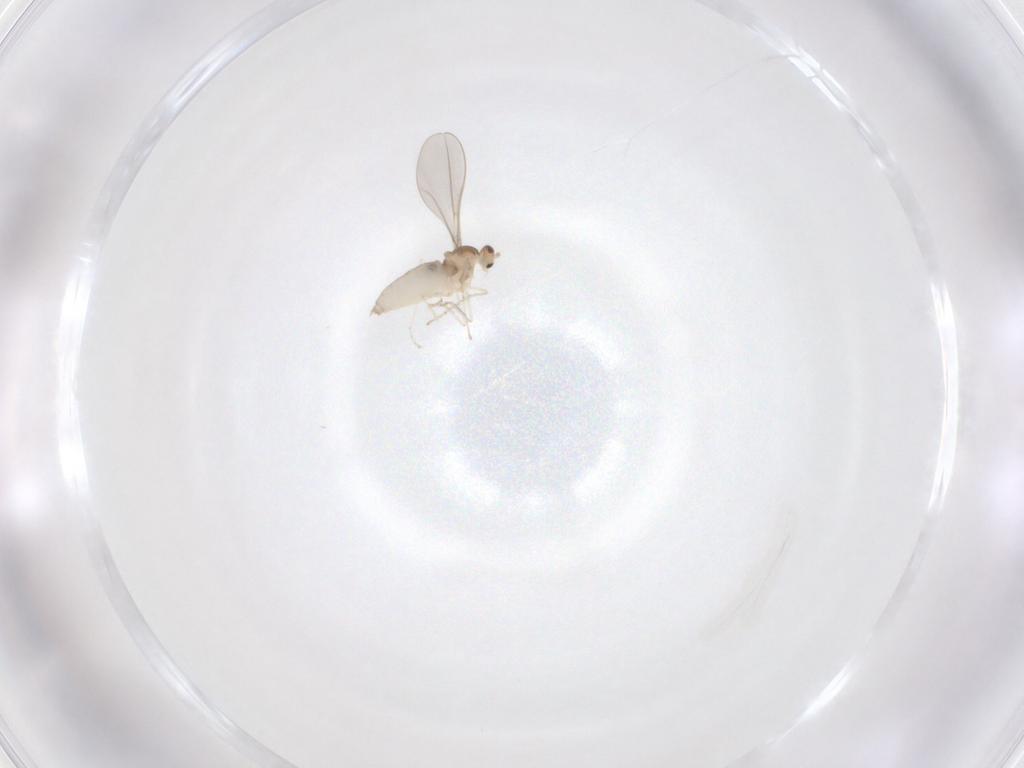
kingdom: Animalia
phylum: Arthropoda
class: Insecta
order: Diptera
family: Cecidomyiidae
